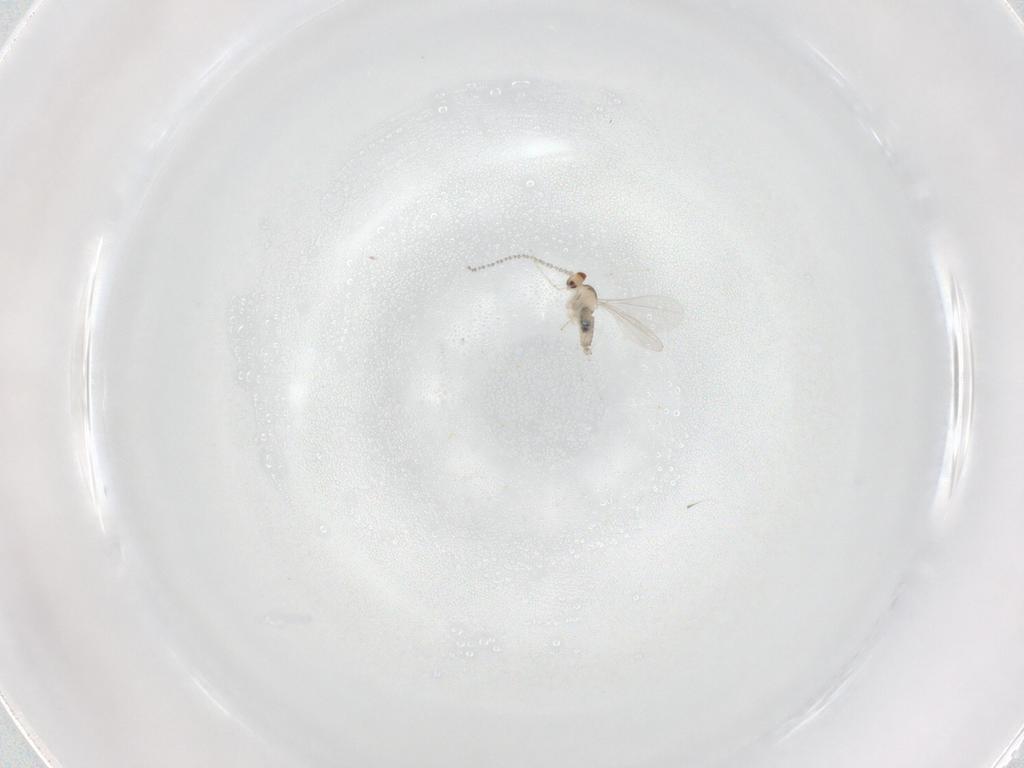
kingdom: Animalia
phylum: Arthropoda
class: Insecta
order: Diptera
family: Cecidomyiidae
